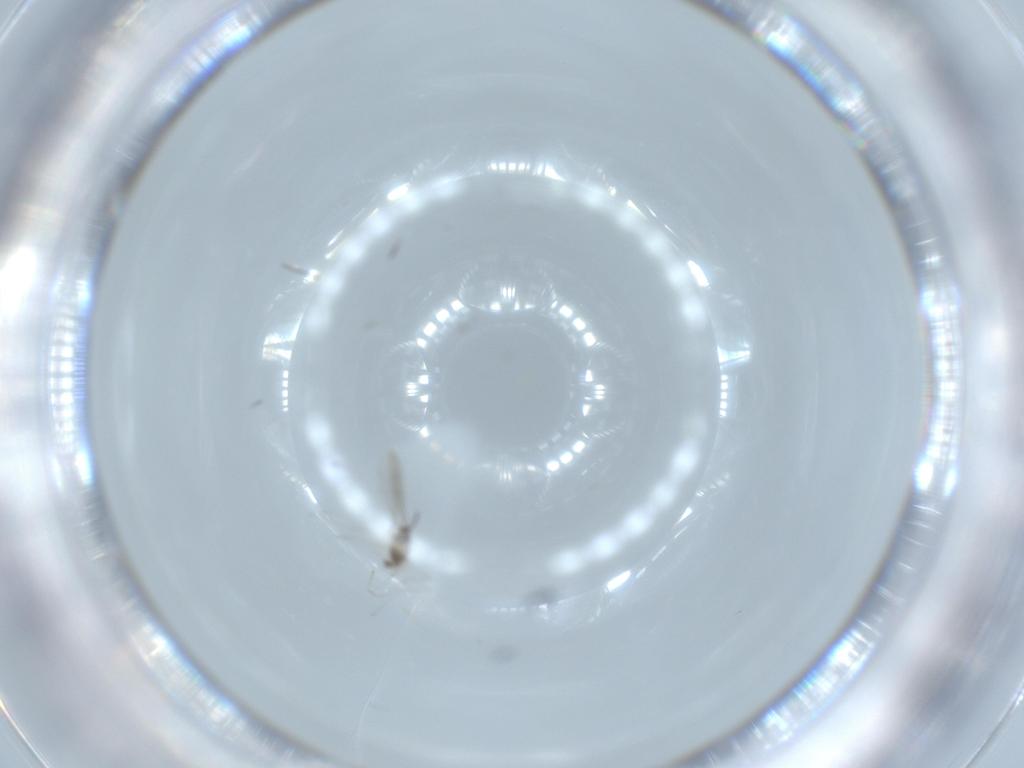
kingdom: Animalia
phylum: Arthropoda
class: Insecta
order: Diptera
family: Cecidomyiidae
